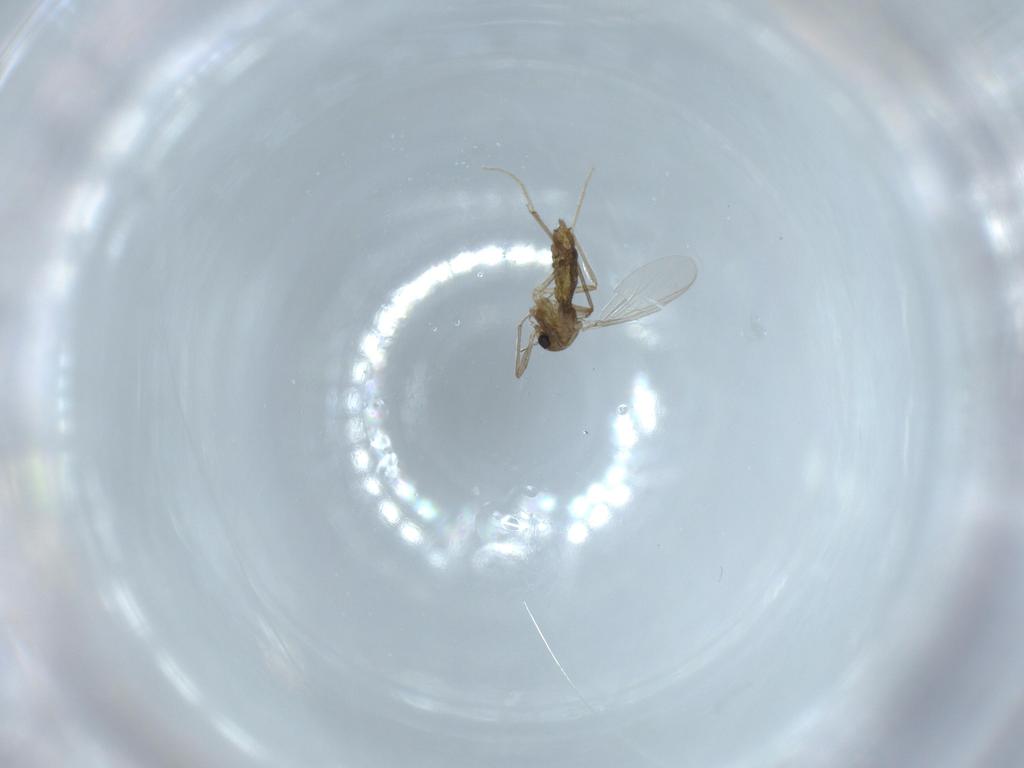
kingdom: Animalia
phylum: Arthropoda
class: Insecta
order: Diptera
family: Chironomidae
